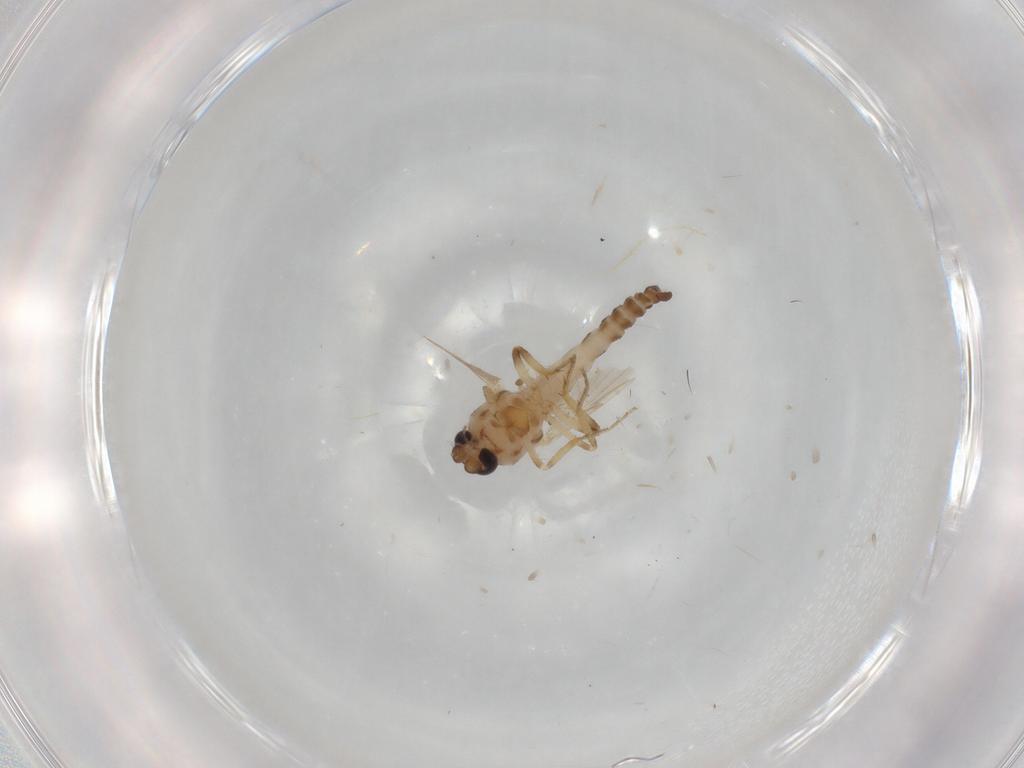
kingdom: Animalia
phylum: Arthropoda
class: Insecta
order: Diptera
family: Ceratopogonidae
